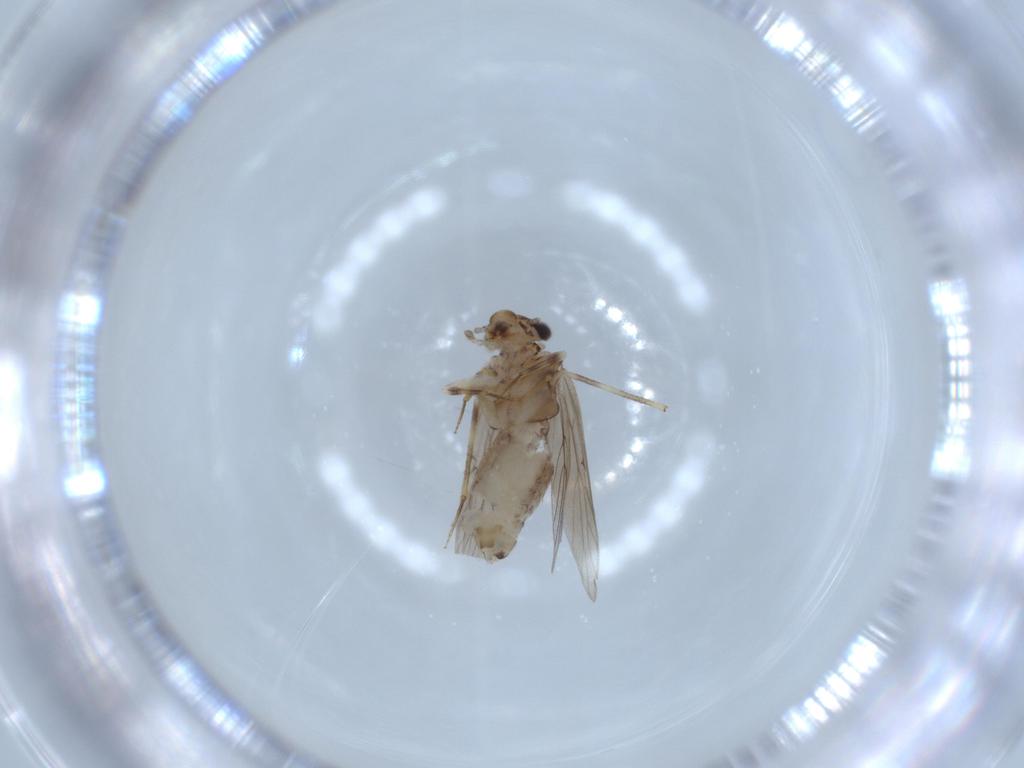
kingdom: Animalia
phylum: Arthropoda
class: Insecta
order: Psocodea
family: Lepidopsocidae
